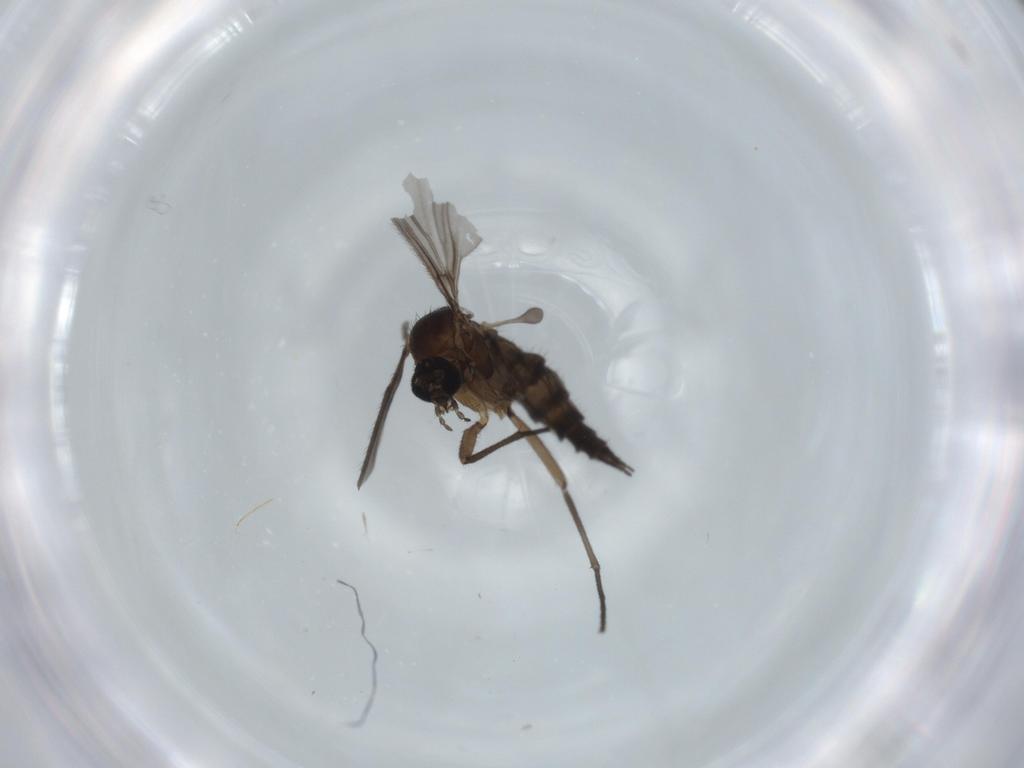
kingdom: Animalia
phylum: Arthropoda
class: Insecta
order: Diptera
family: Sciaridae
